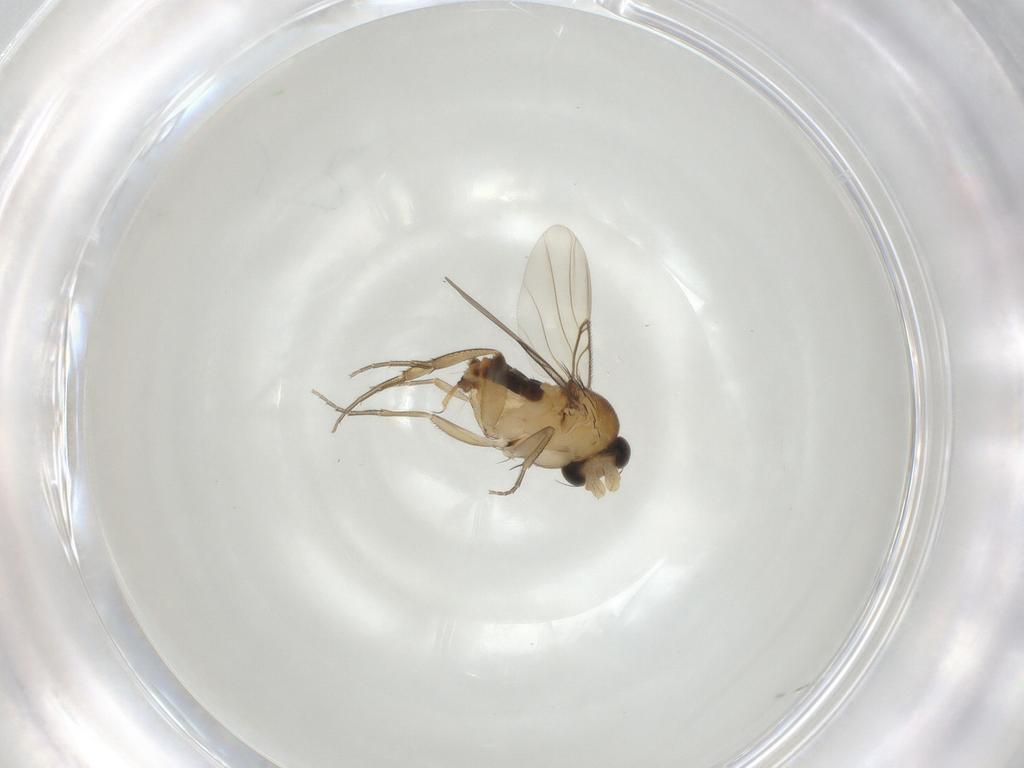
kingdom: Animalia
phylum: Arthropoda
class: Insecta
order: Diptera
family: Phoridae
